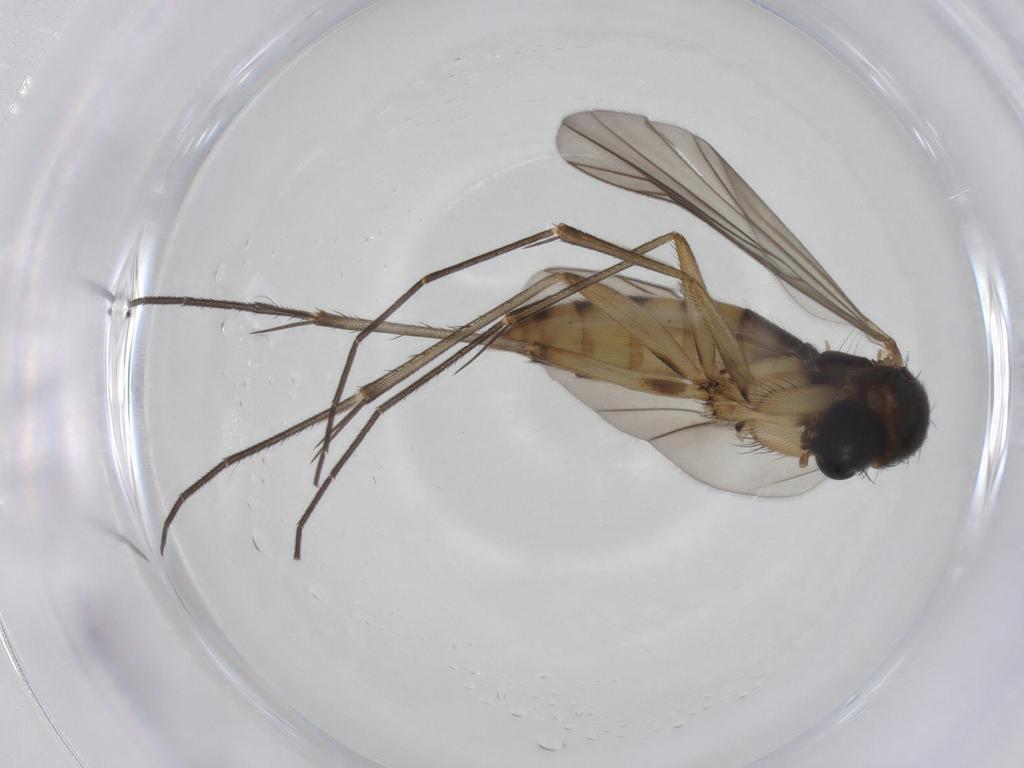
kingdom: Animalia
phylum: Arthropoda
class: Insecta
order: Diptera
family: Mycetophilidae
